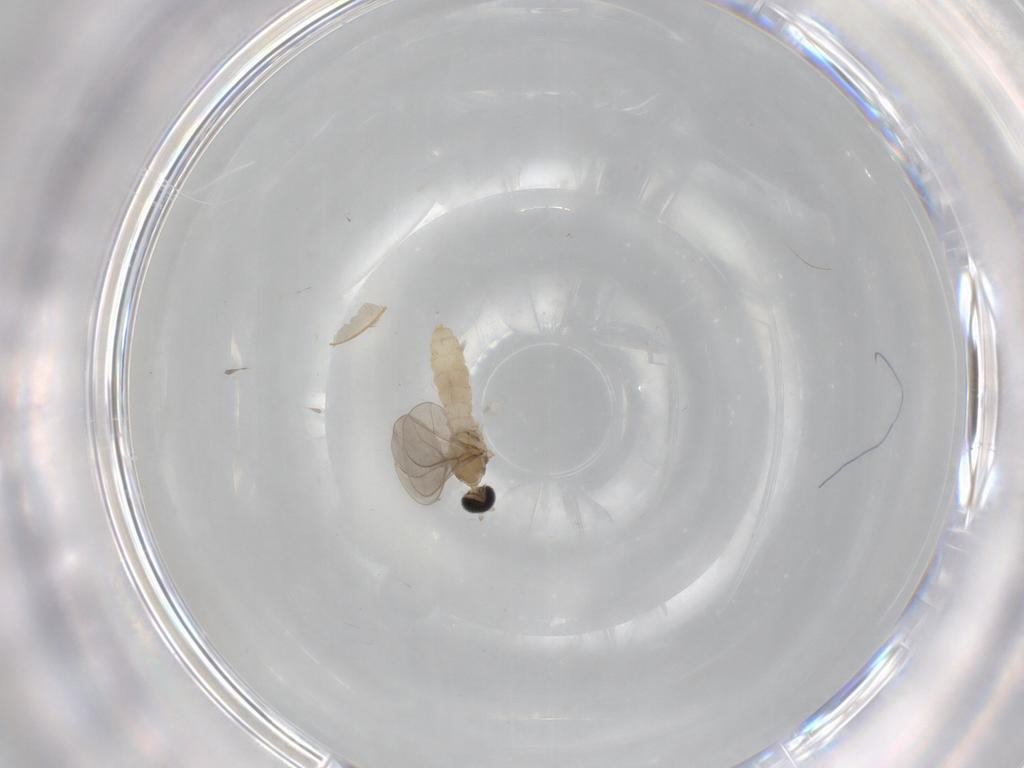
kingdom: Animalia
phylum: Arthropoda
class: Insecta
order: Diptera
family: Cecidomyiidae
